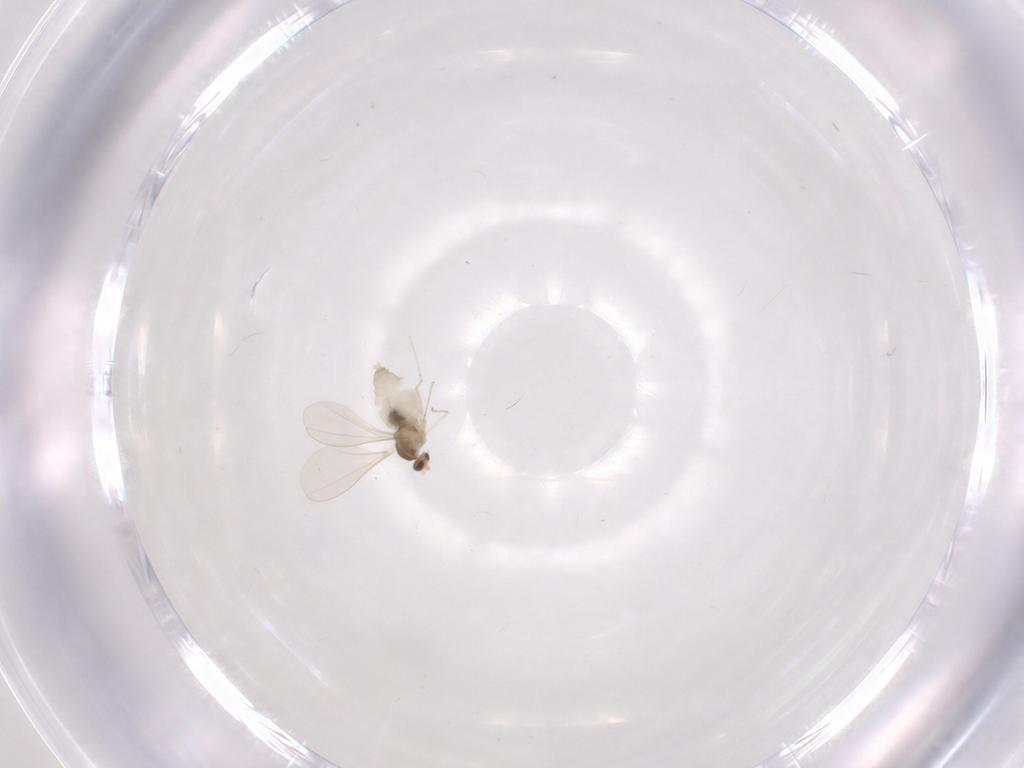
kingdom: Animalia
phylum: Arthropoda
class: Insecta
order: Diptera
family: Cecidomyiidae
